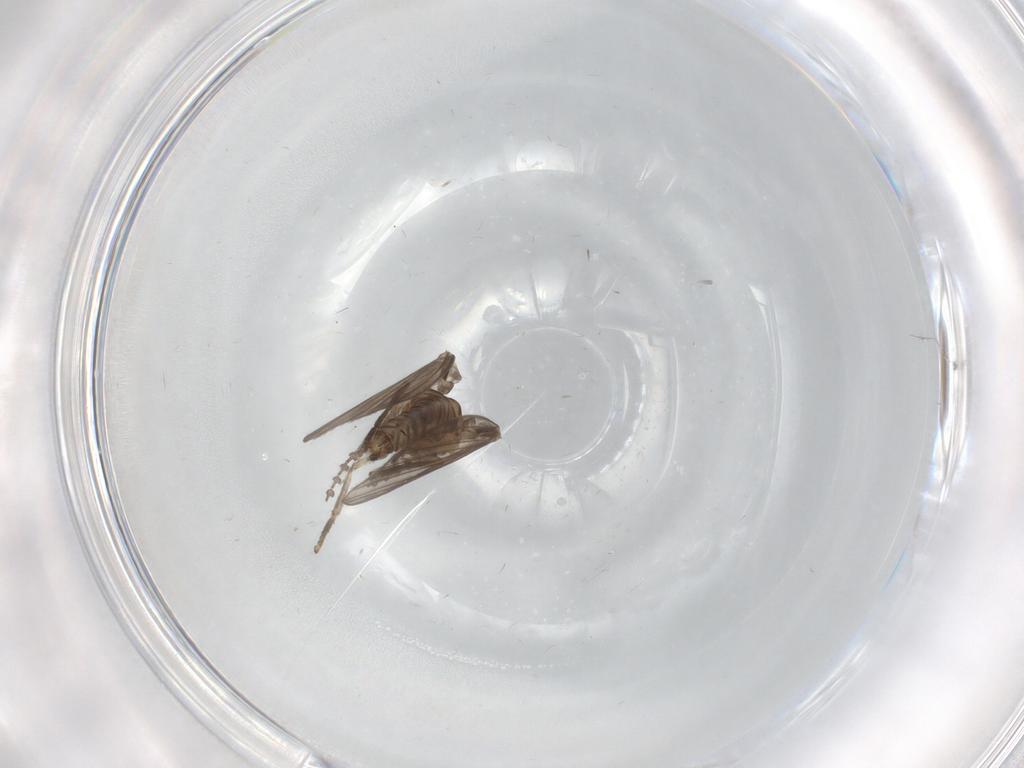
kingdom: Animalia
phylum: Arthropoda
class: Insecta
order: Diptera
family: Psychodidae
